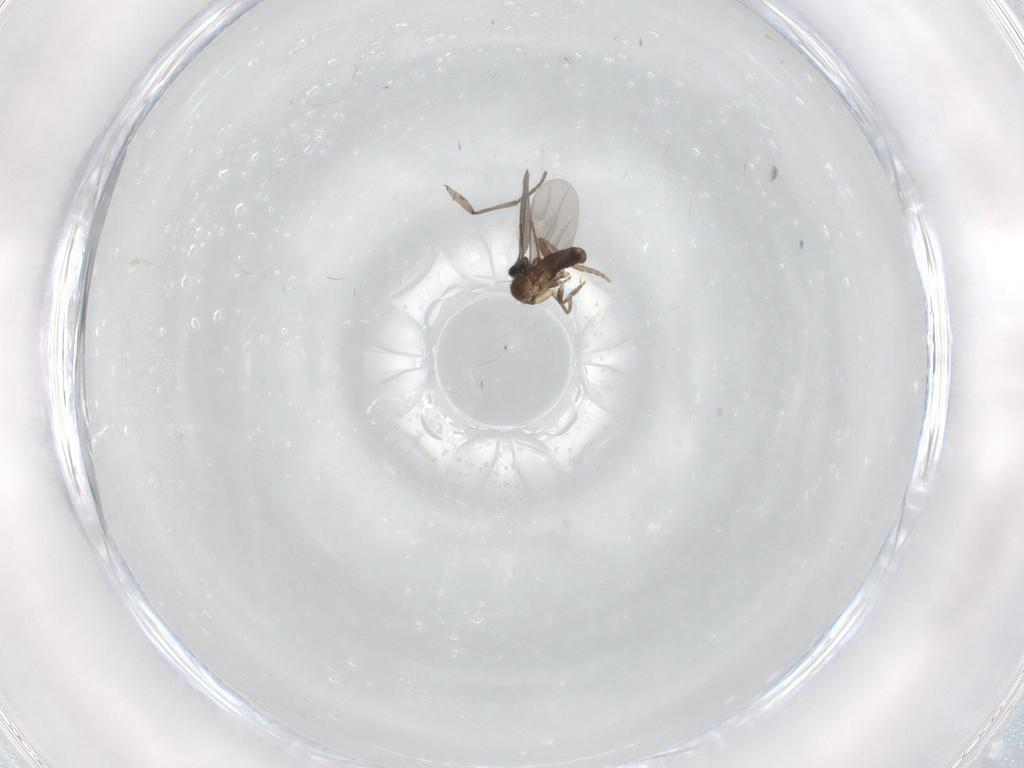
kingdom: Animalia
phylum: Arthropoda
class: Insecta
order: Diptera
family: Sciaridae
